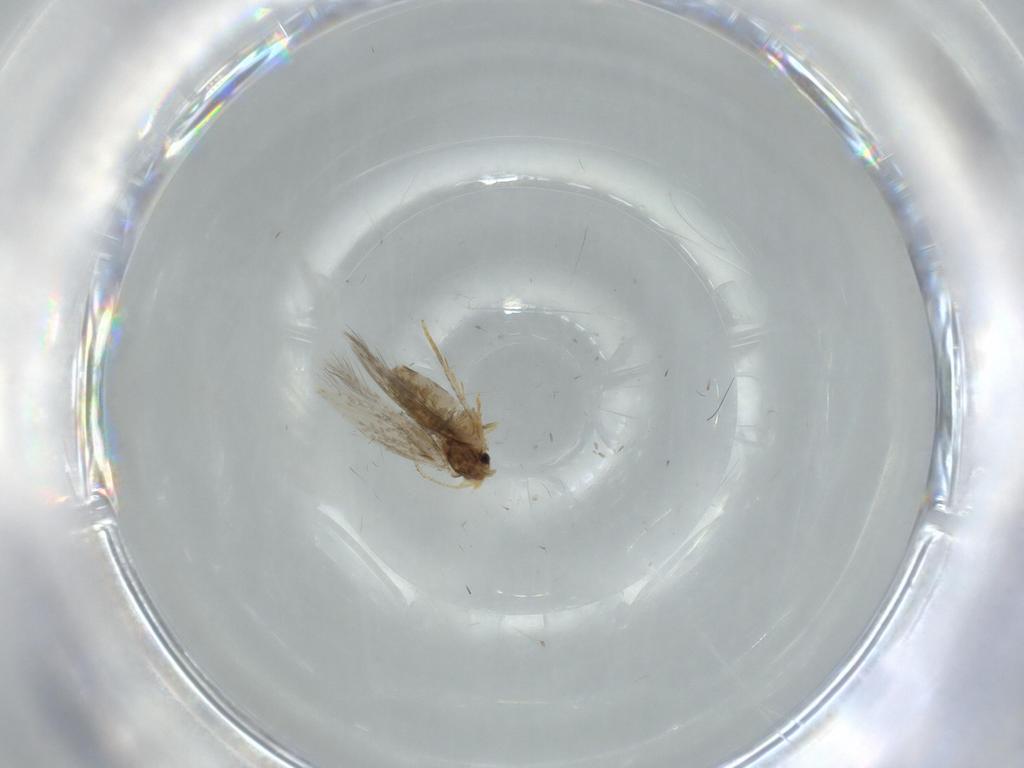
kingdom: Animalia
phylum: Arthropoda
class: Insecta
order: Lepidoptera
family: Nepticulidae
